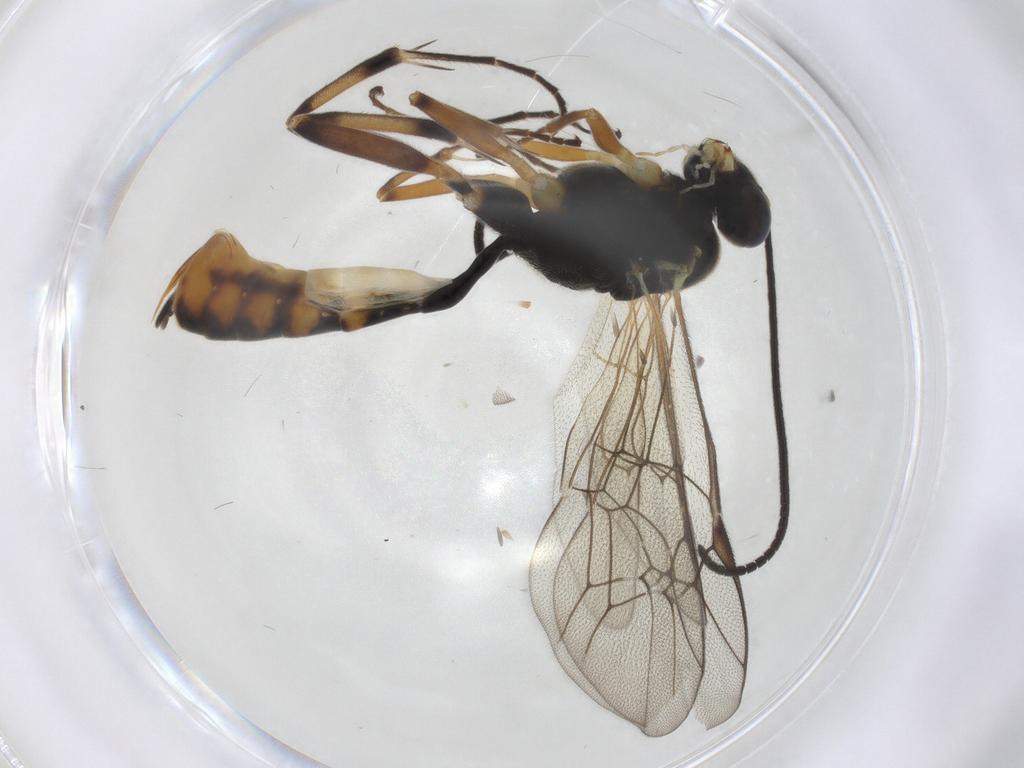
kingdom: Animalia
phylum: Arthropoda
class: Insecta
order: Hymenoptera
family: Ichneumonidae
